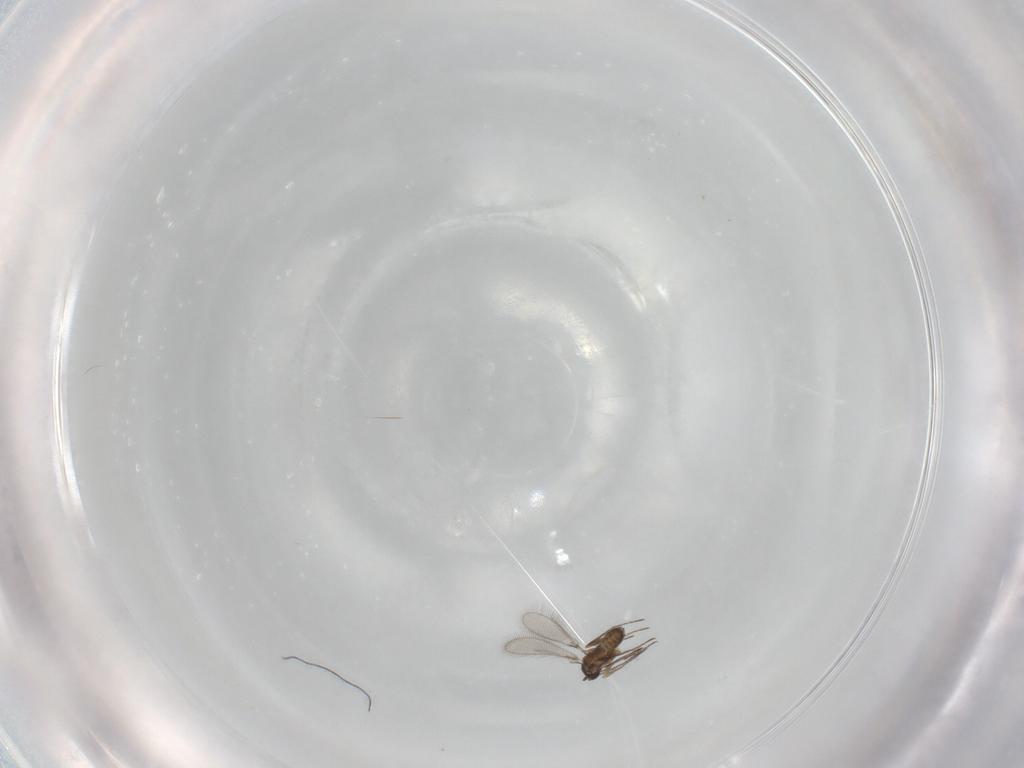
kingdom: Animalia
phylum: Arthropoda
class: Insecta
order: Hymenoptera
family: Mymaridae
